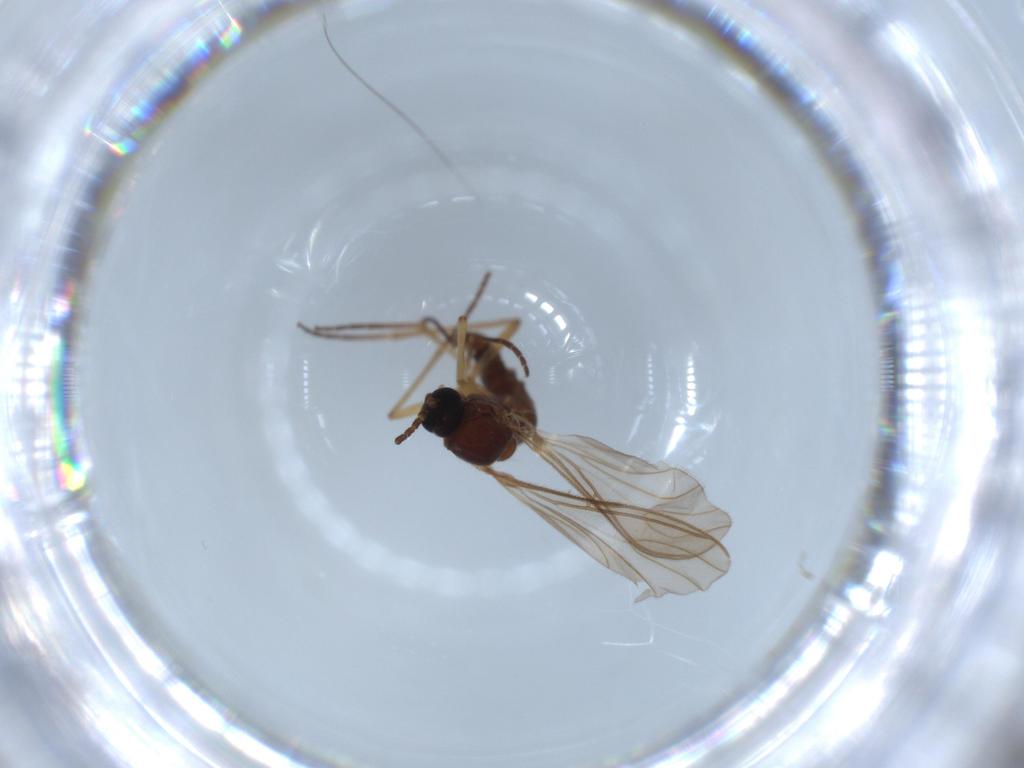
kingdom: Animalia
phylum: Arthropoda
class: Insecta
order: Diptera
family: Sciaridae
